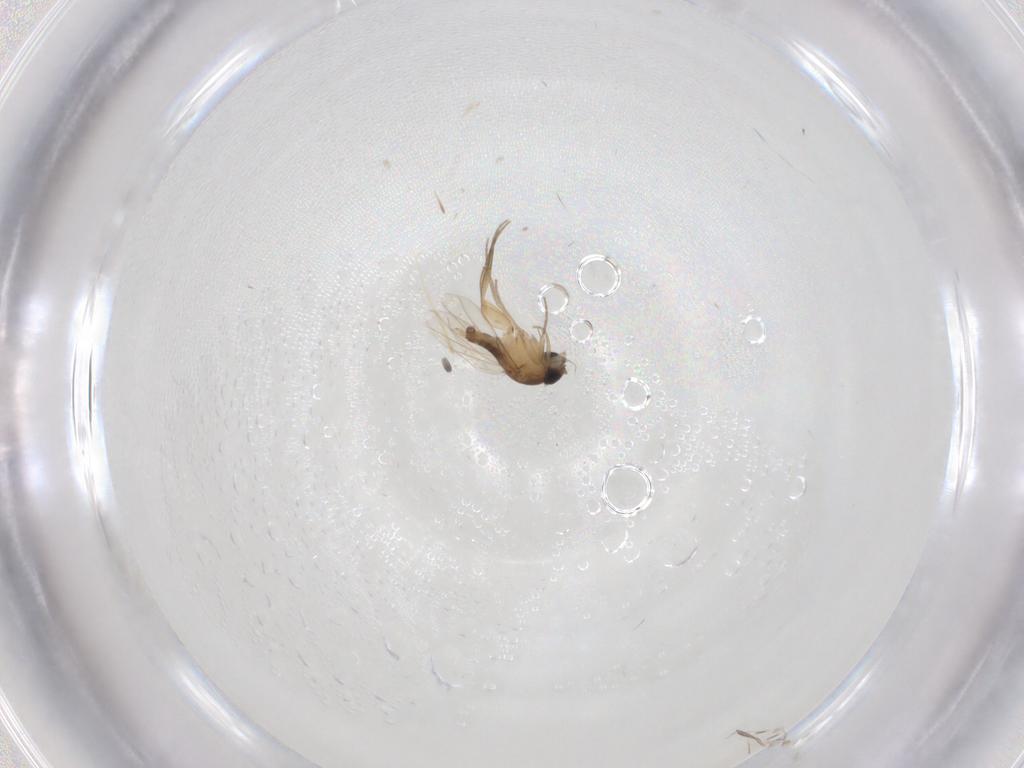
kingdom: Animalia
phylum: Arthropoda
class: Insecta
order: Diptera
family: Phoridae
